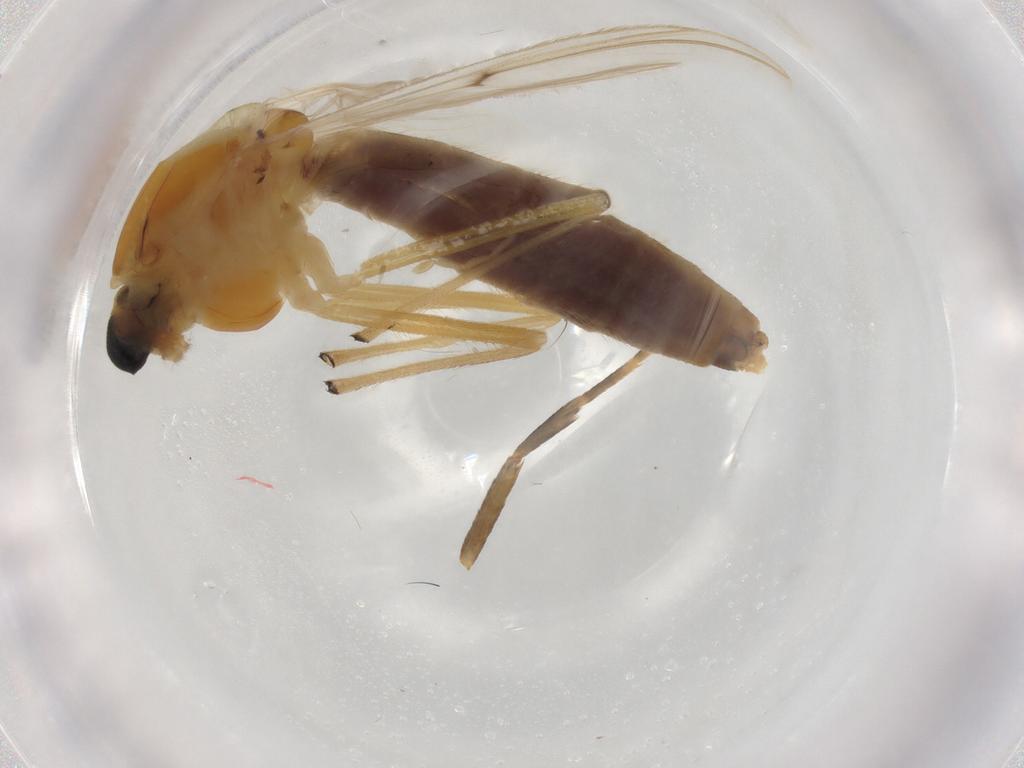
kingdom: Animalia
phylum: Arthropoda
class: Insecta
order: Diptera
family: Chironomidae
